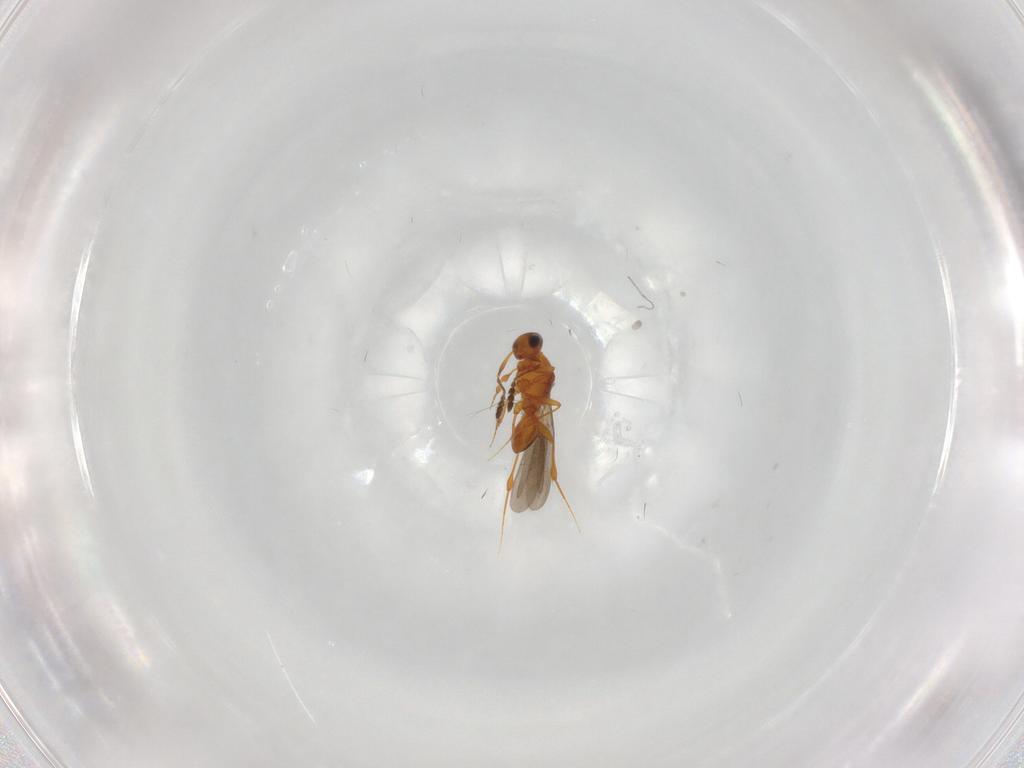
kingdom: Animalia
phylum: Arthropoda
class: Insecta
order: Hymenoptera
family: Platygastridae
